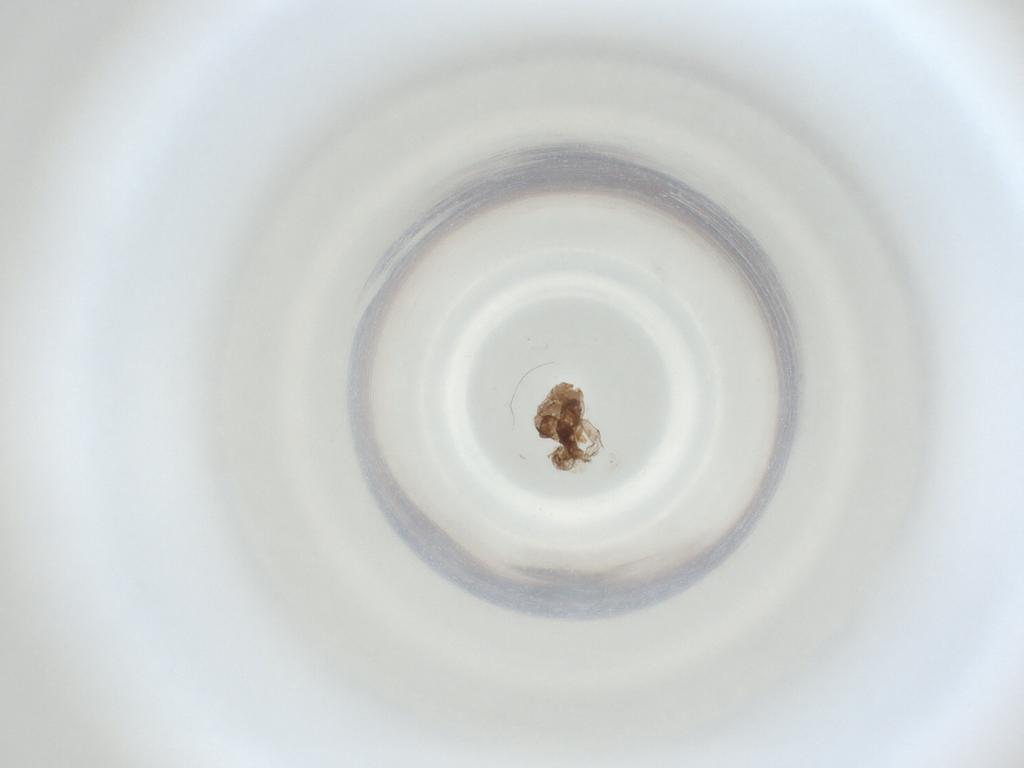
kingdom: Animalia
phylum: Arthropoda
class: Insecta
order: Diptera
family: Cecidomyiidae
